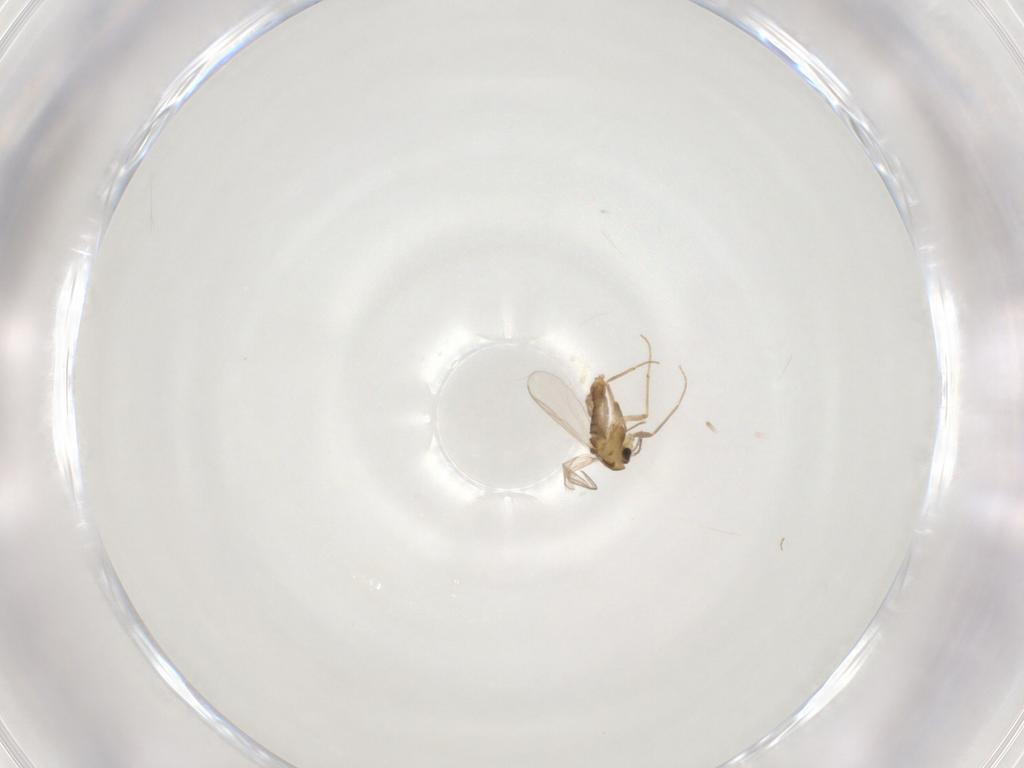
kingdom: Animalia
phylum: Arthropoda
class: Insecta
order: Diptera
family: Chironomidae
